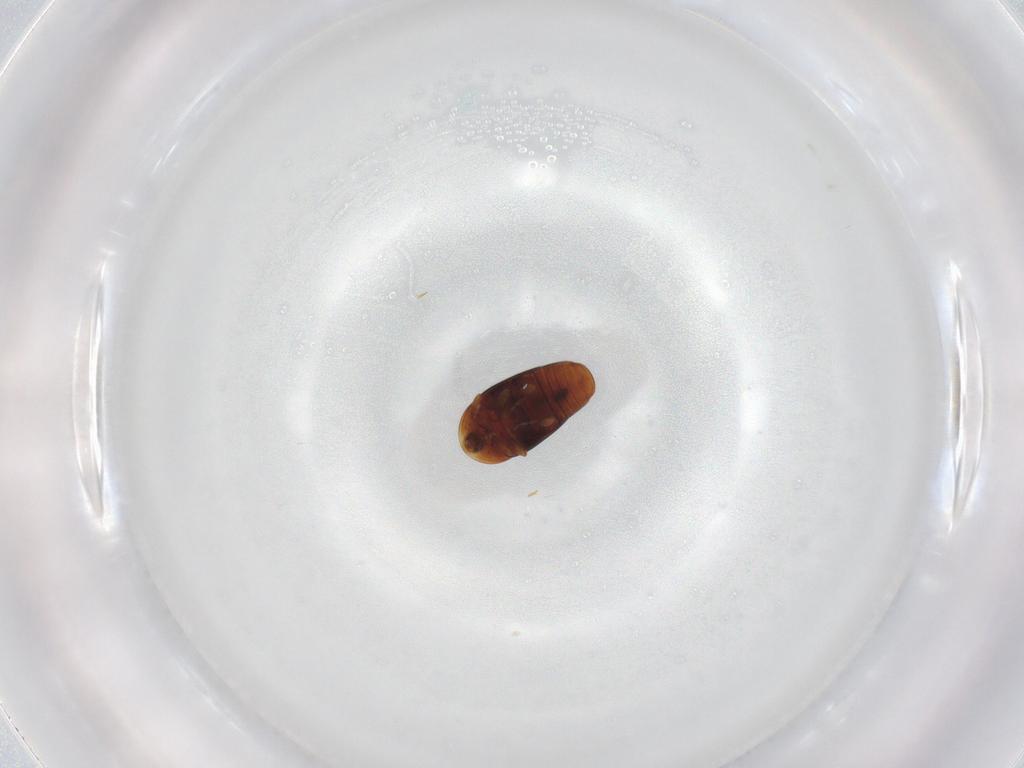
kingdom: Animalia
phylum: Arthropoda
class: Insecta
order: Coleoptera
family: Corylophidae
